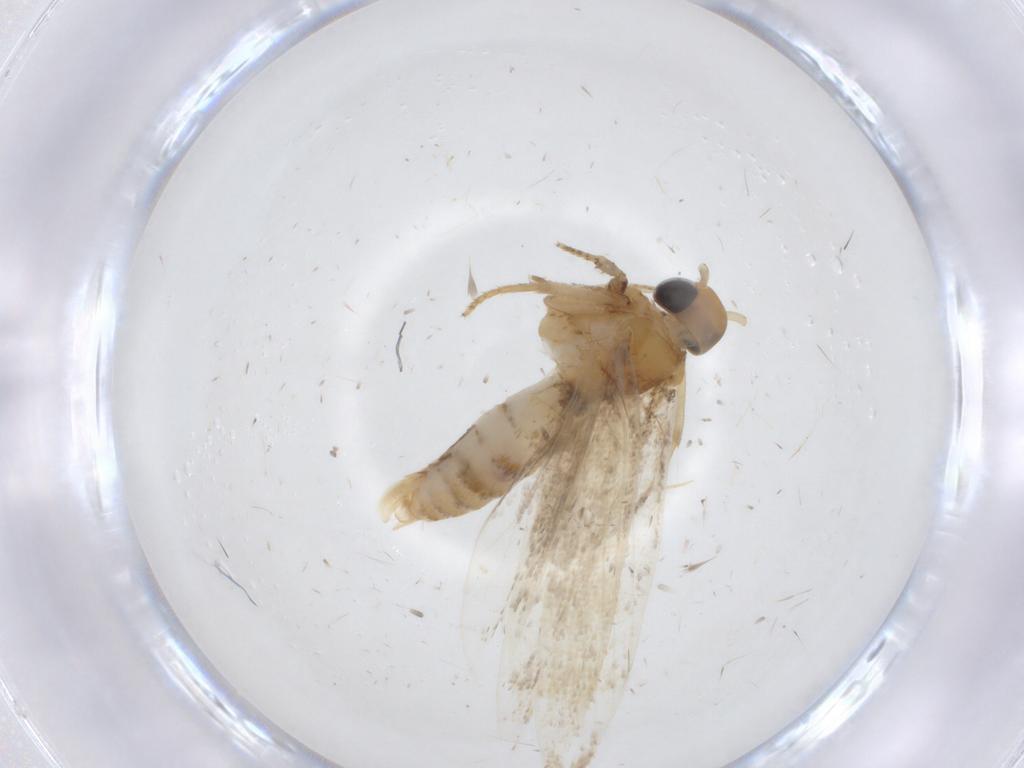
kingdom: Animalia
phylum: Arthropoda
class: Insecta
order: Lepidoptera
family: Oecophoridae
